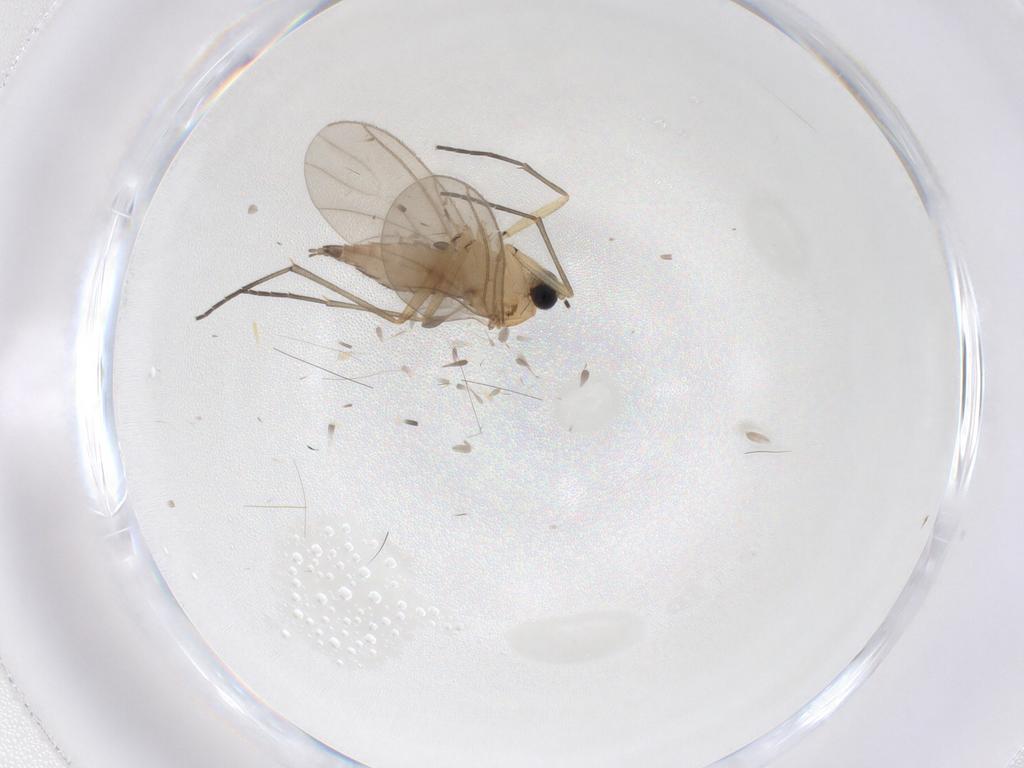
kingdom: Animalia
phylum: Arthropoda
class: Insecta
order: Diptera
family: Sciaridae
